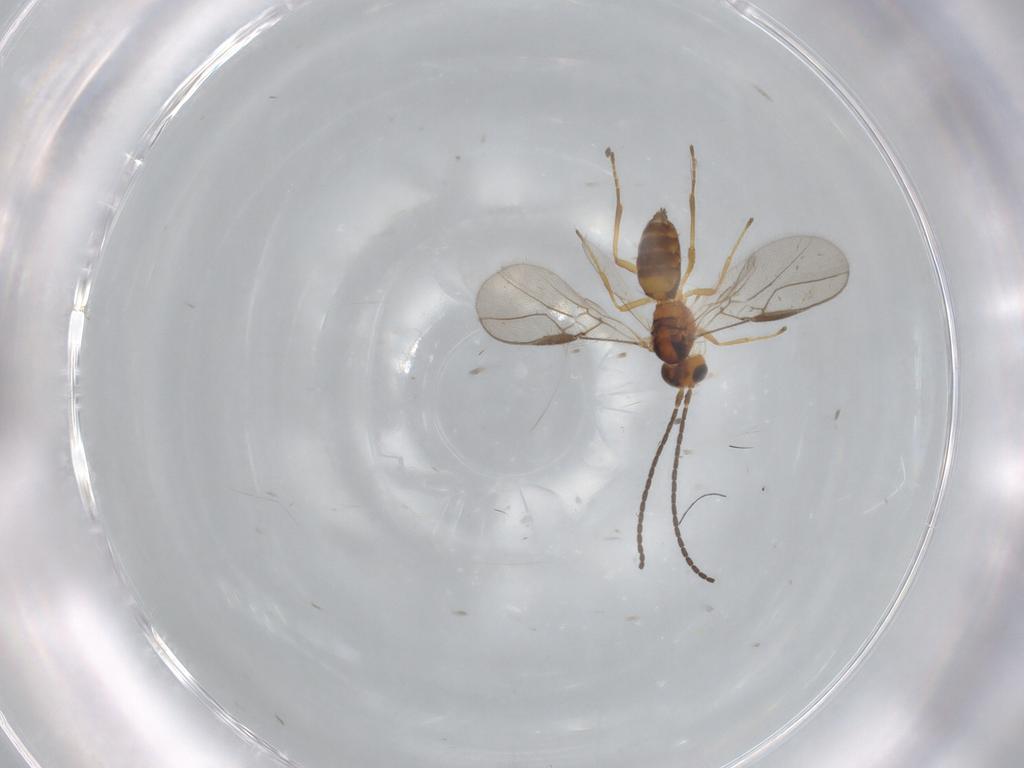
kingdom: Animalia
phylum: Arthropoda
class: Insecta
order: Hymenoptera
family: Braconidae
